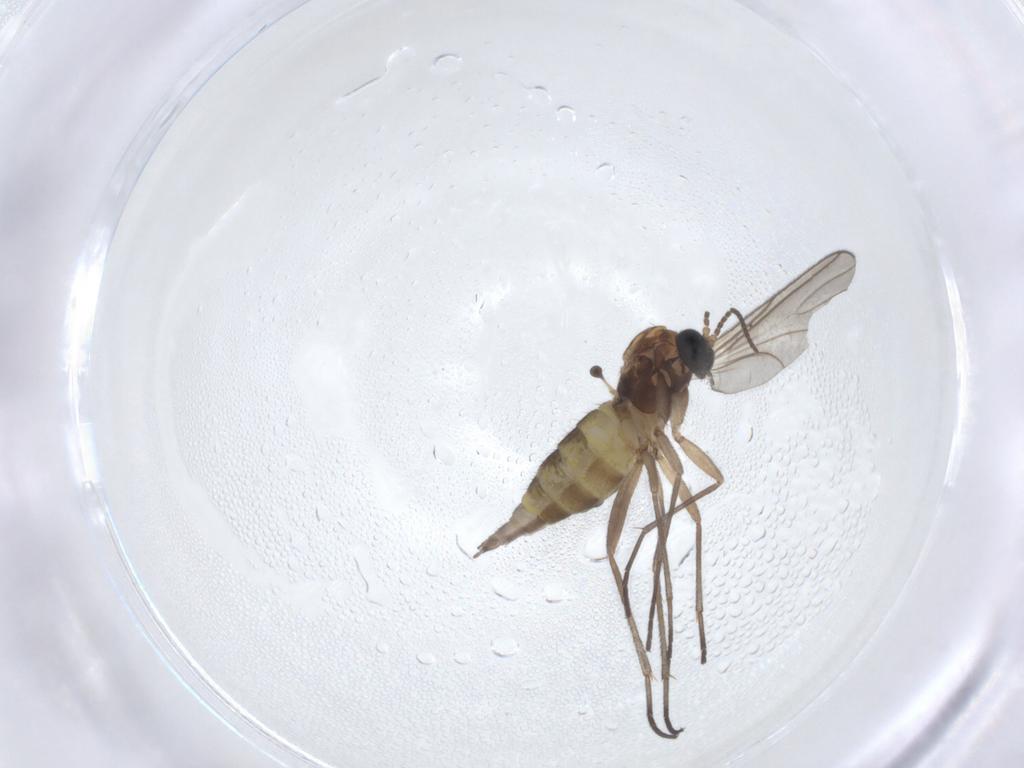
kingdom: Animalia
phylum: Arthropoda
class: Insecta
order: Diptera
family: Sciaridae
